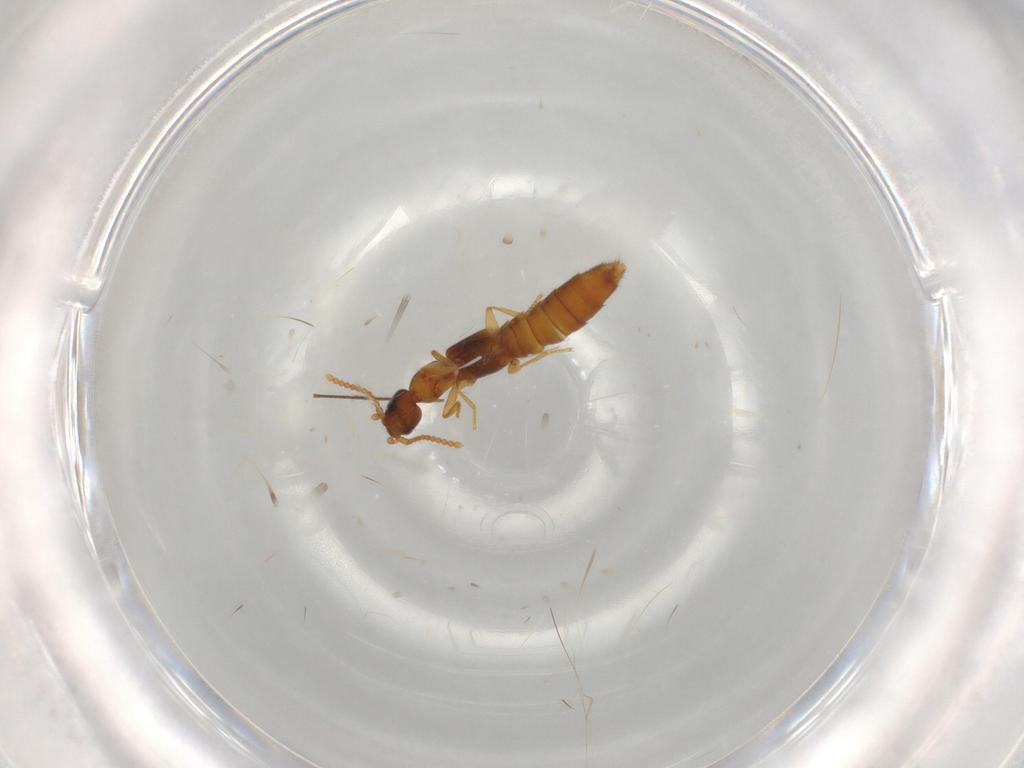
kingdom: Animalia
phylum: Arthropoda
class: Insecta
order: Coleoptera
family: Staphylinidae
